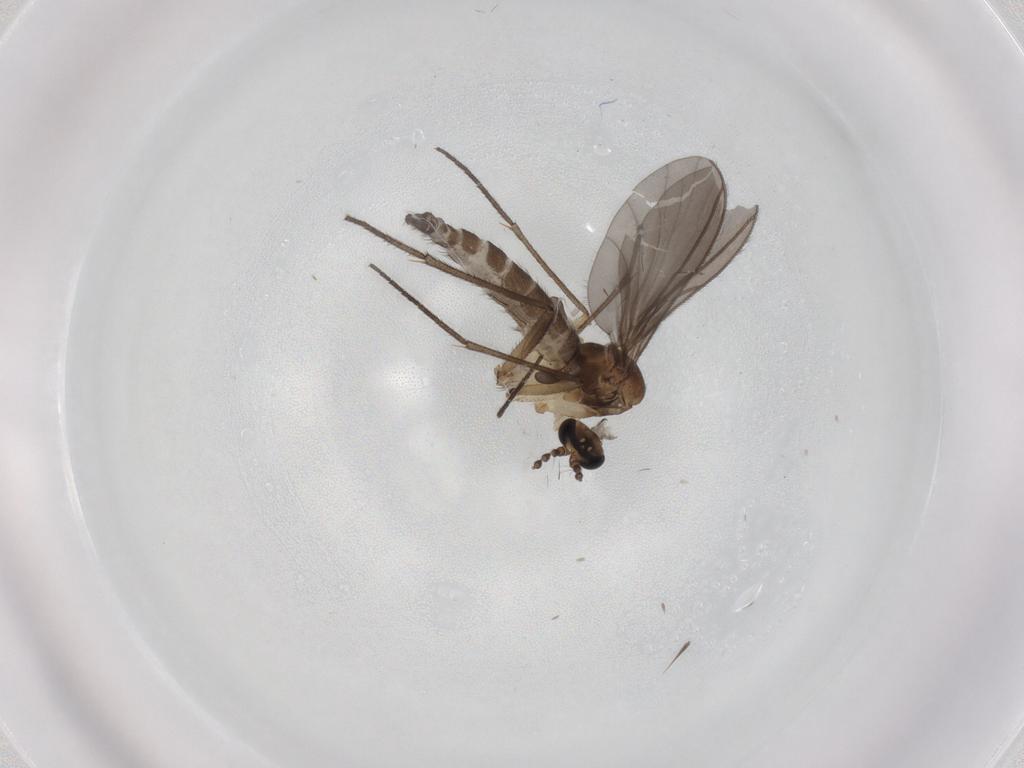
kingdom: Animalia
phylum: Arthropoda
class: Insecta
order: Diptera
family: Sciaridae
